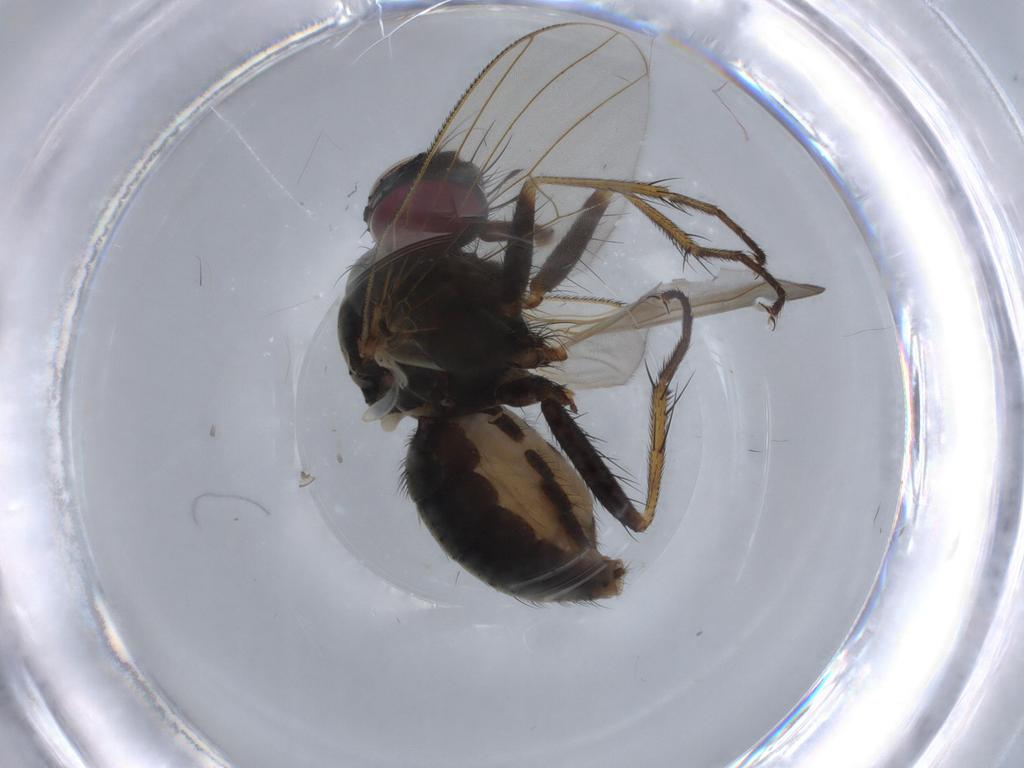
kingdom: Animalia
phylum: Arthropoda
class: Insecta
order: Diptera
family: Muscidae
